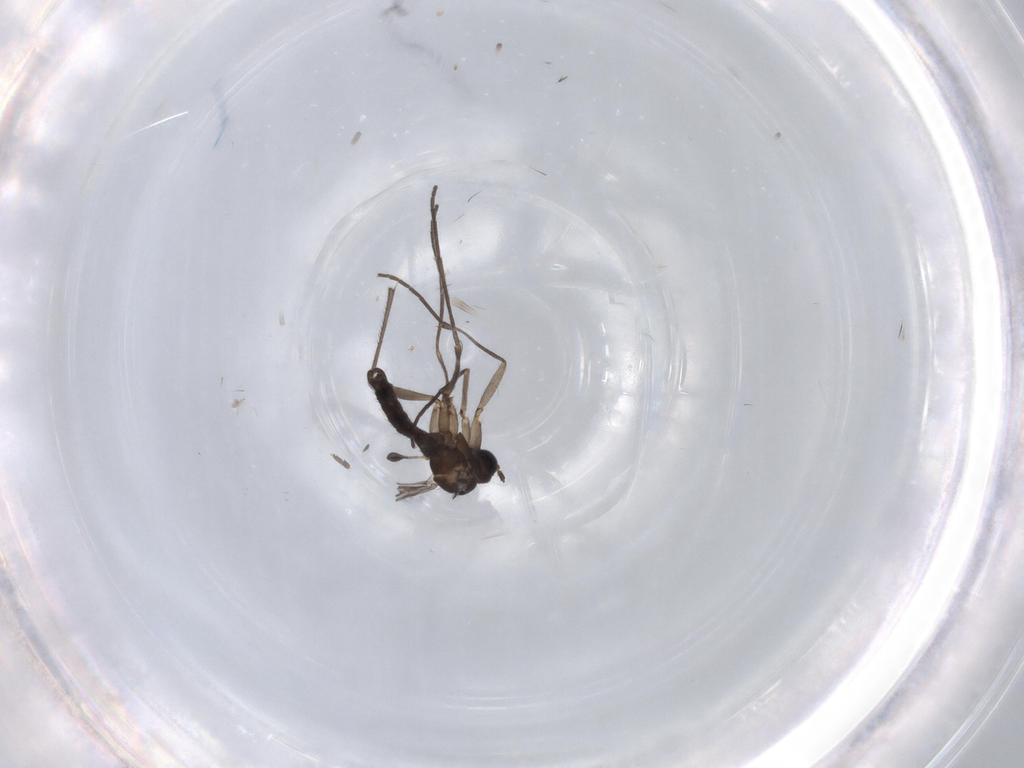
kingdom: Animalia
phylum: Arthropoda
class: Insecta
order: Diptera
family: Sciaridae
